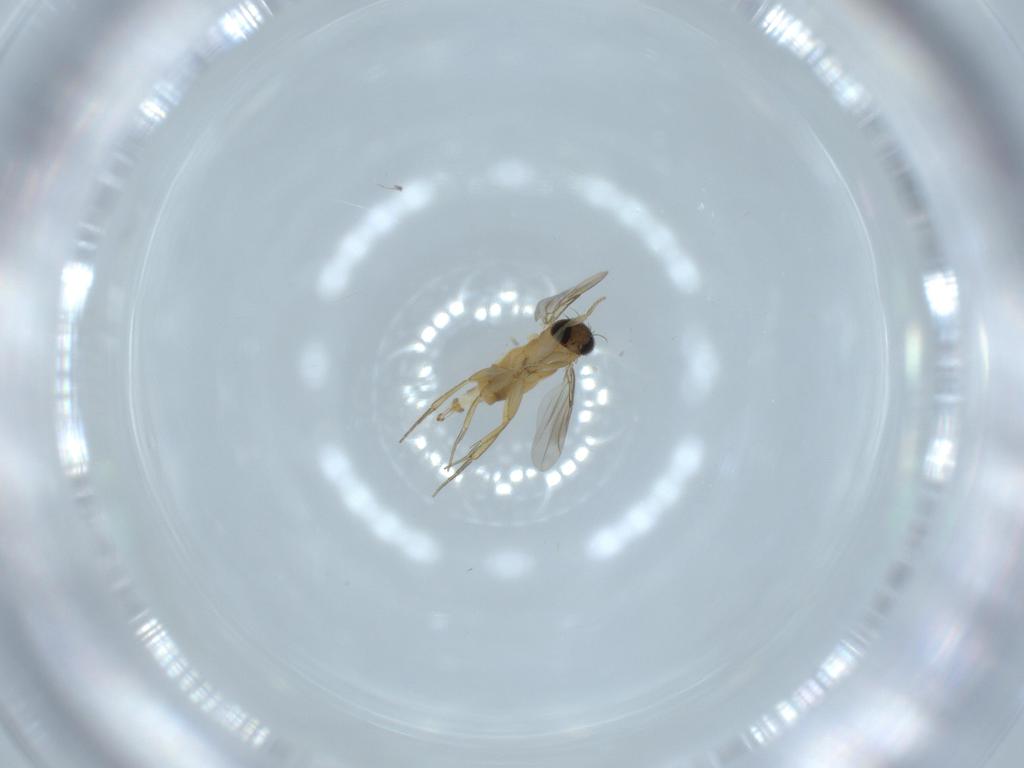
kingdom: Animalia
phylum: Arthropoda
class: Insecta
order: Diptera
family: Phoridae
